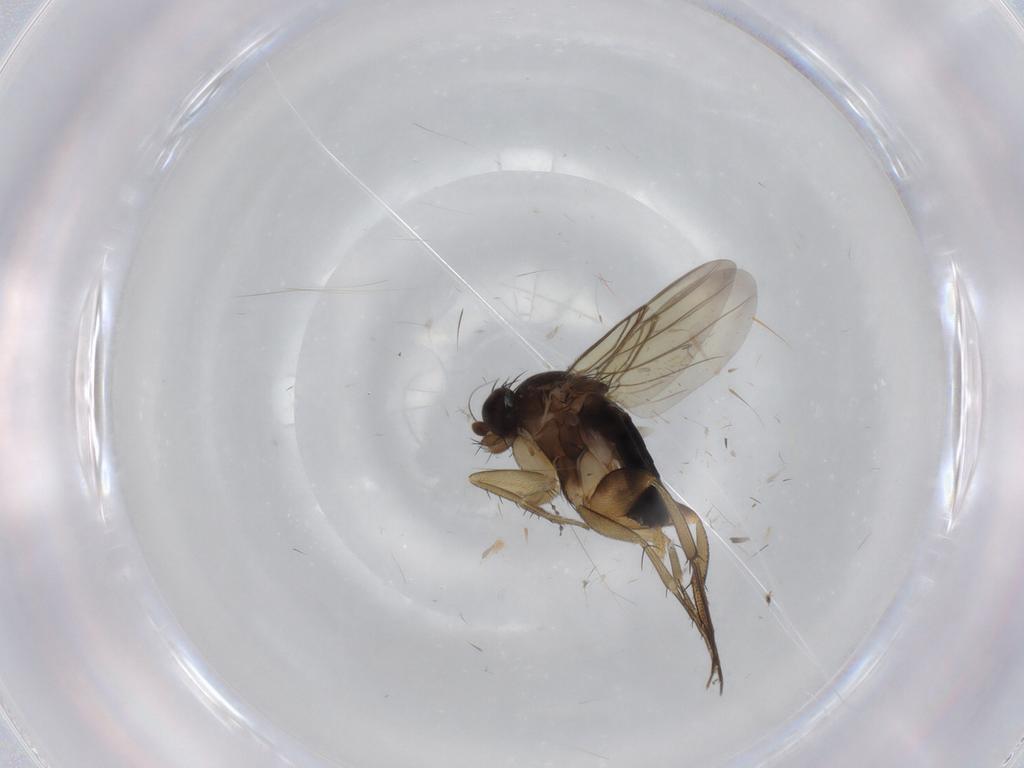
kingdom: Animalia
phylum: Arthropoda
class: Insecta
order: Diptera
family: Phoridae
